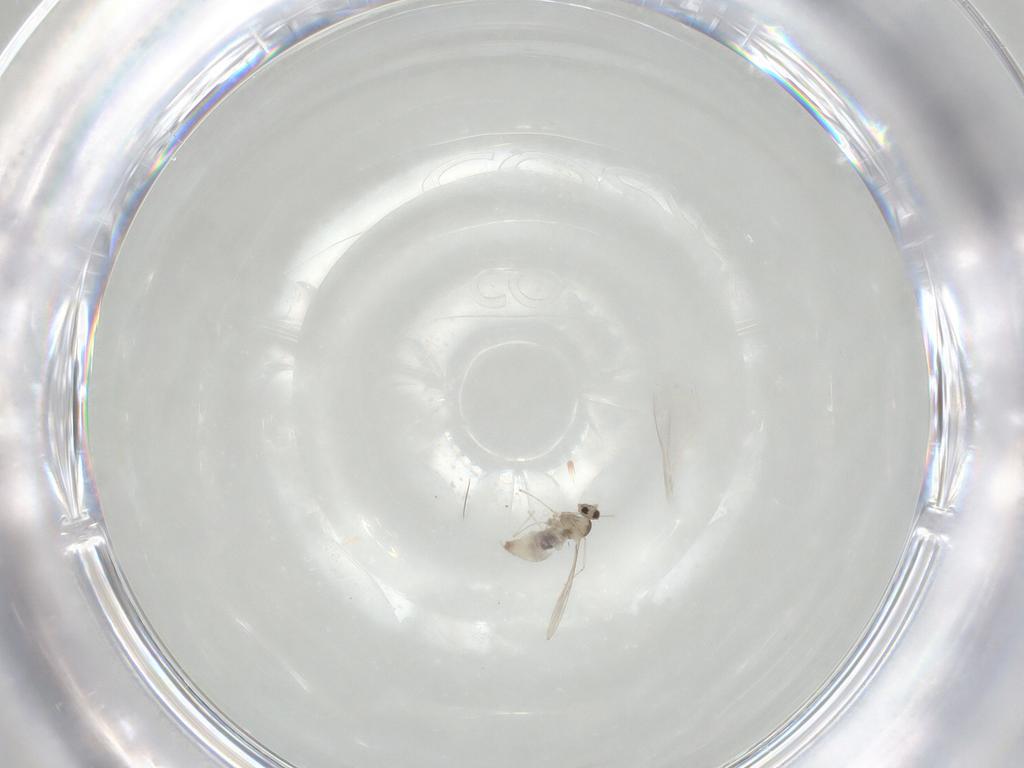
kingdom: Animalia
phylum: Arthropoda
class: Insecta
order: Diptera
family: Cecidomyiidae
